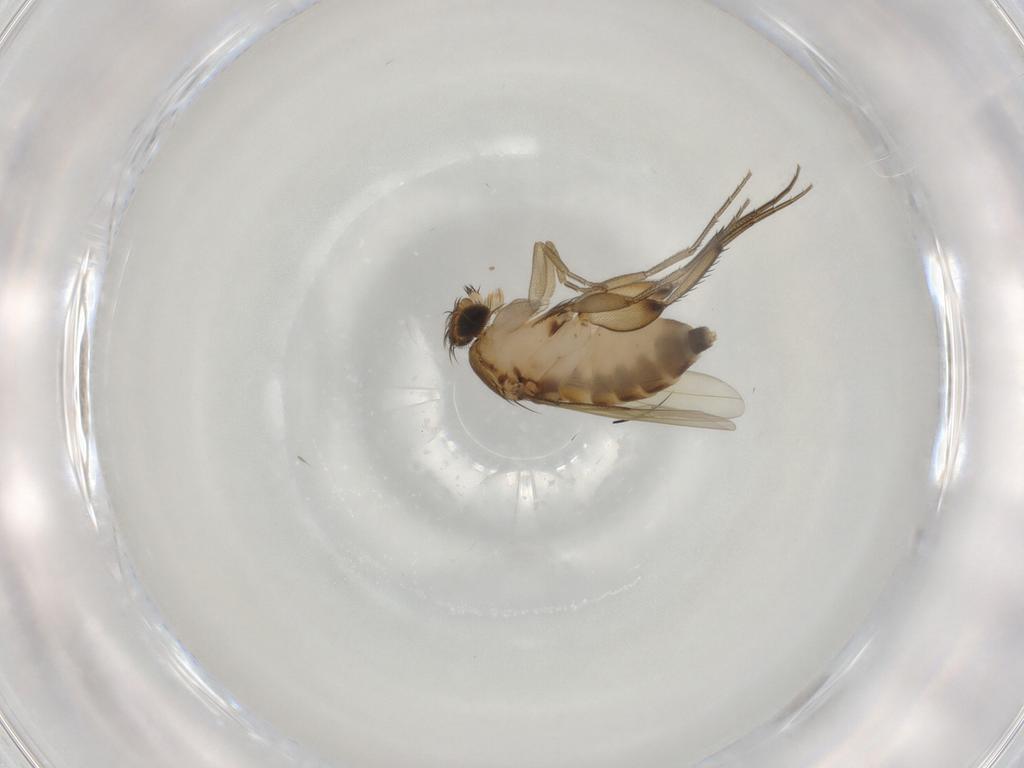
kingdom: Animalia
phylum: Arthropoda
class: Insecta
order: Diptera
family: Phoridae
